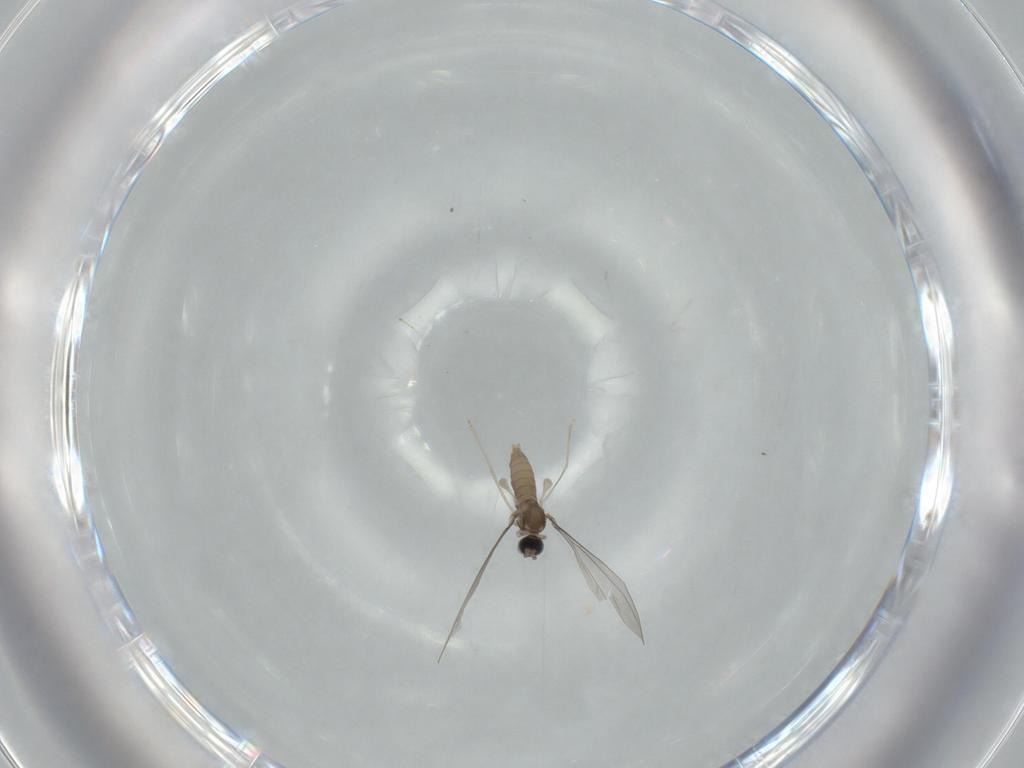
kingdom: Animalia
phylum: Arthropoda
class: Insecta
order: Diptera
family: Cecidomyiidae
